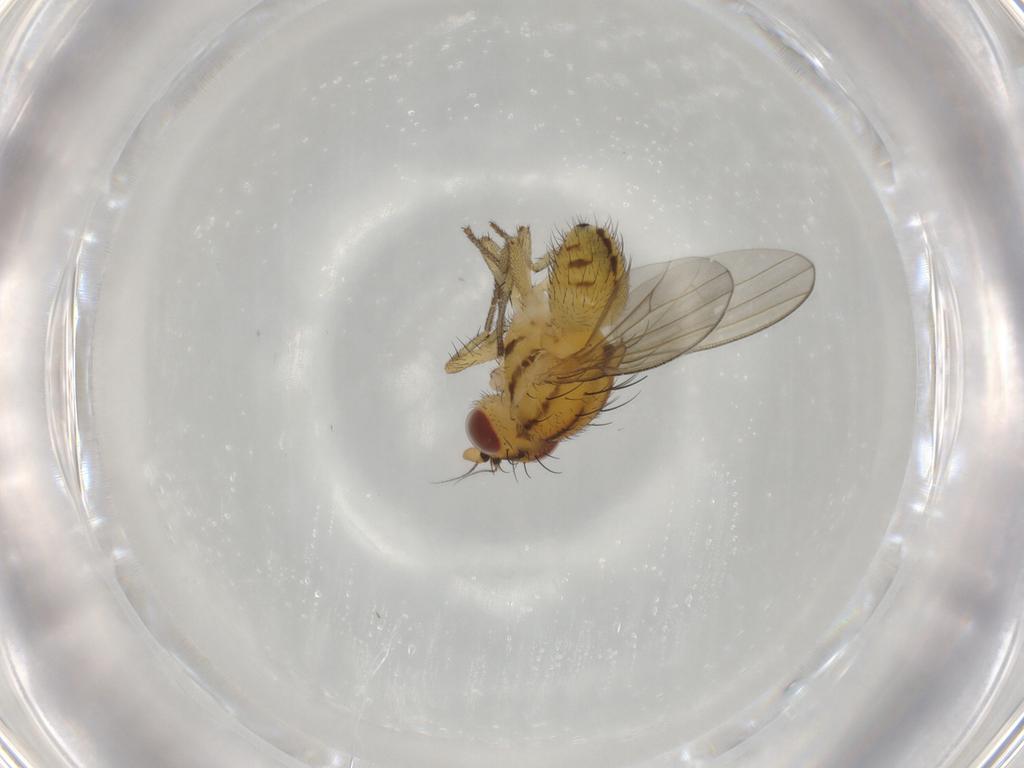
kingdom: Animalia
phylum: Arthropoda
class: Insecta
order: Diptera
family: Lauxaniidae
